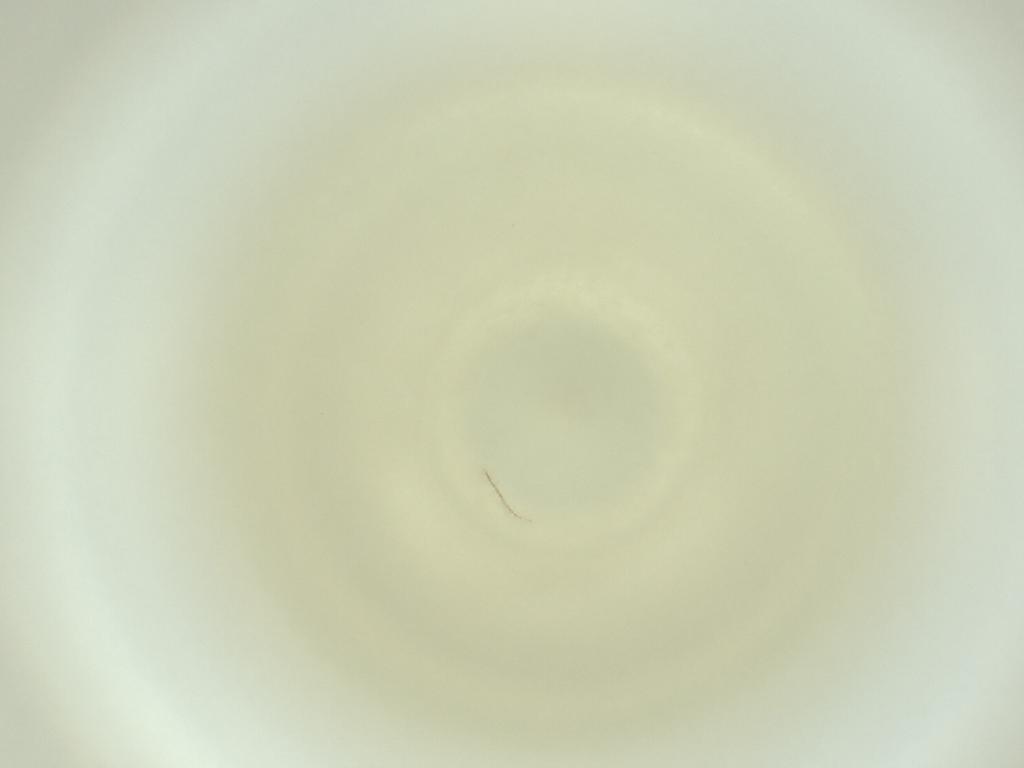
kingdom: Animalia
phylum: Arthropoda
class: Insecta
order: Diptera
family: Cecidomyiidae
